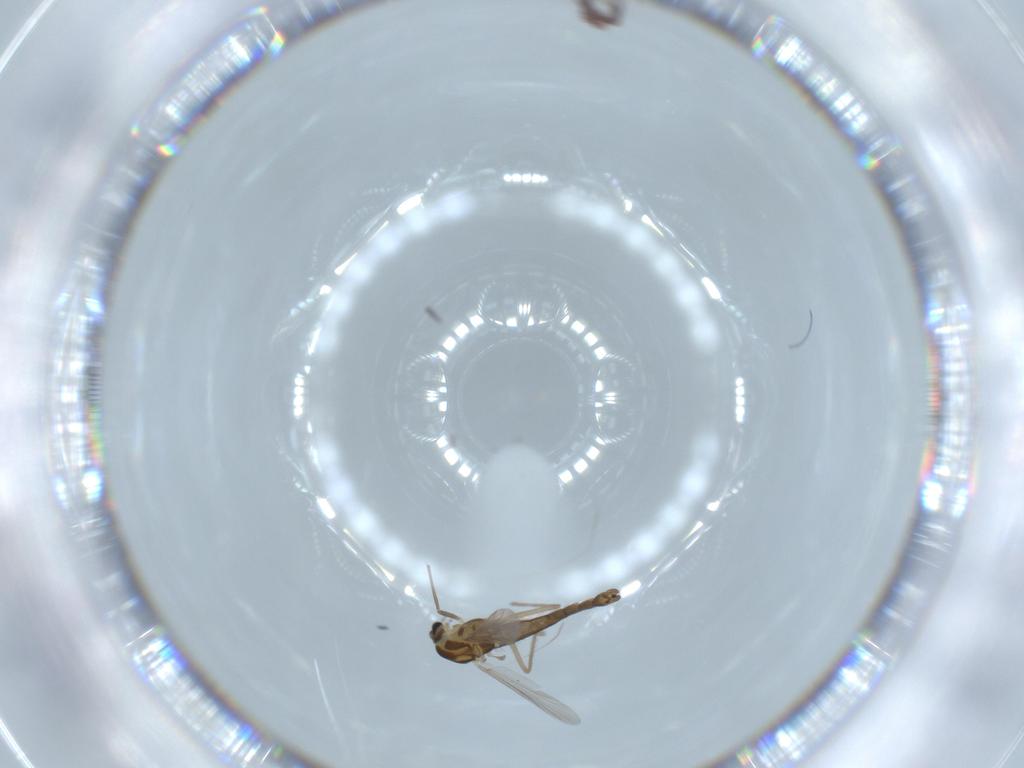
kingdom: Animalia
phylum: Arthropoda
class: Insecta
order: Diptera
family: Chironomidae
